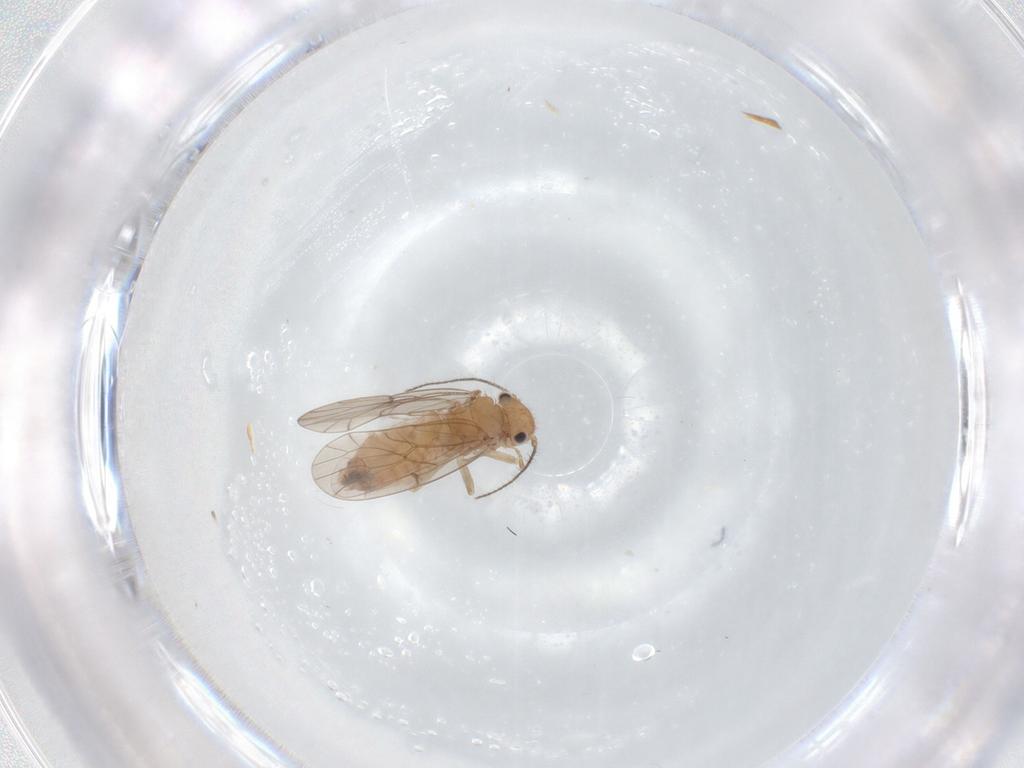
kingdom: Animalia
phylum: Arthropoda
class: Insecta
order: Psocodea
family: Ectopsocidae
